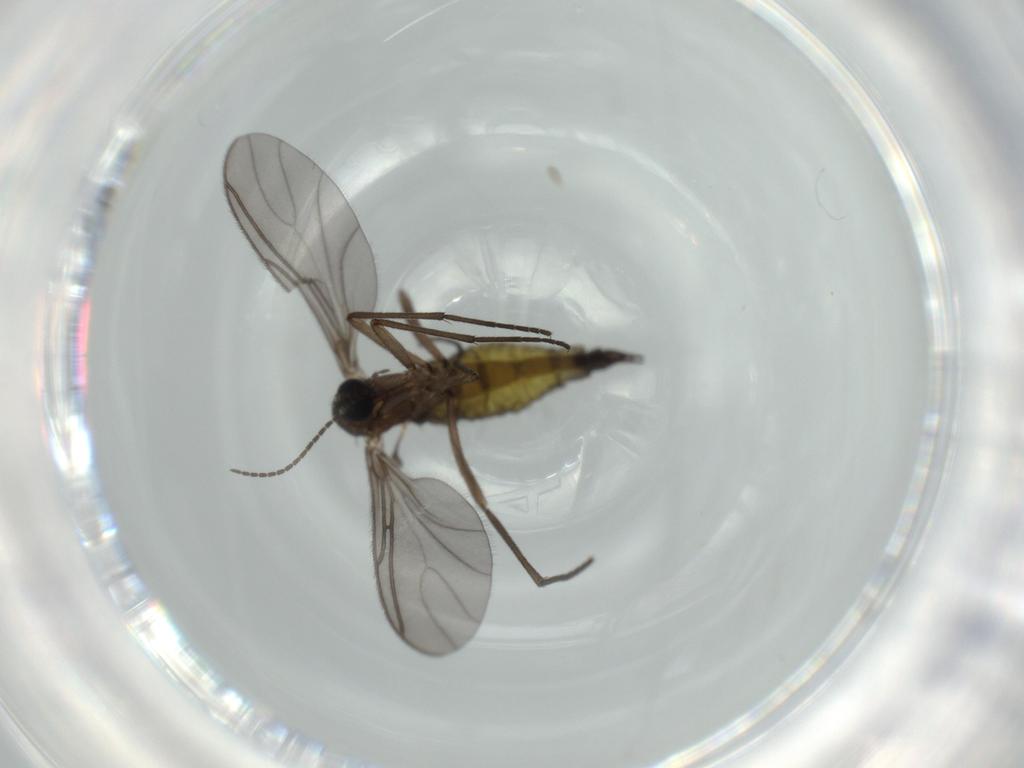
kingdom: Animalia
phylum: Arthropoda
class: Insecta
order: Diptera
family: Sciaridae
